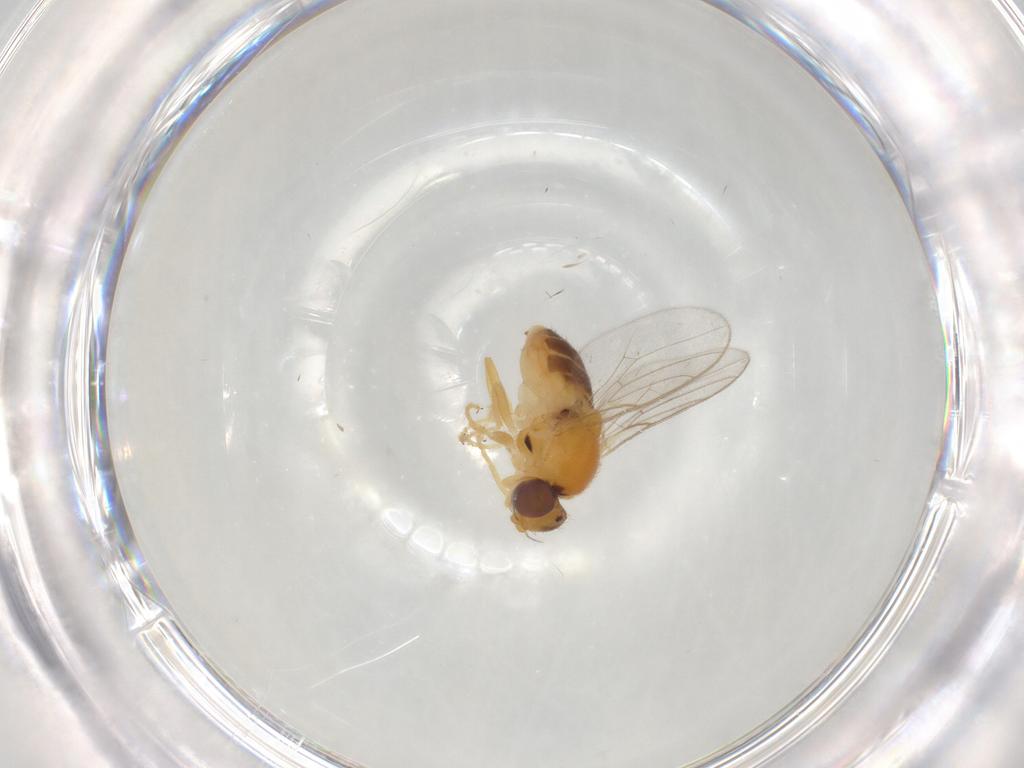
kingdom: Animalia
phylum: Arthropoda
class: Insecta
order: Diptera
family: Chloropidae
